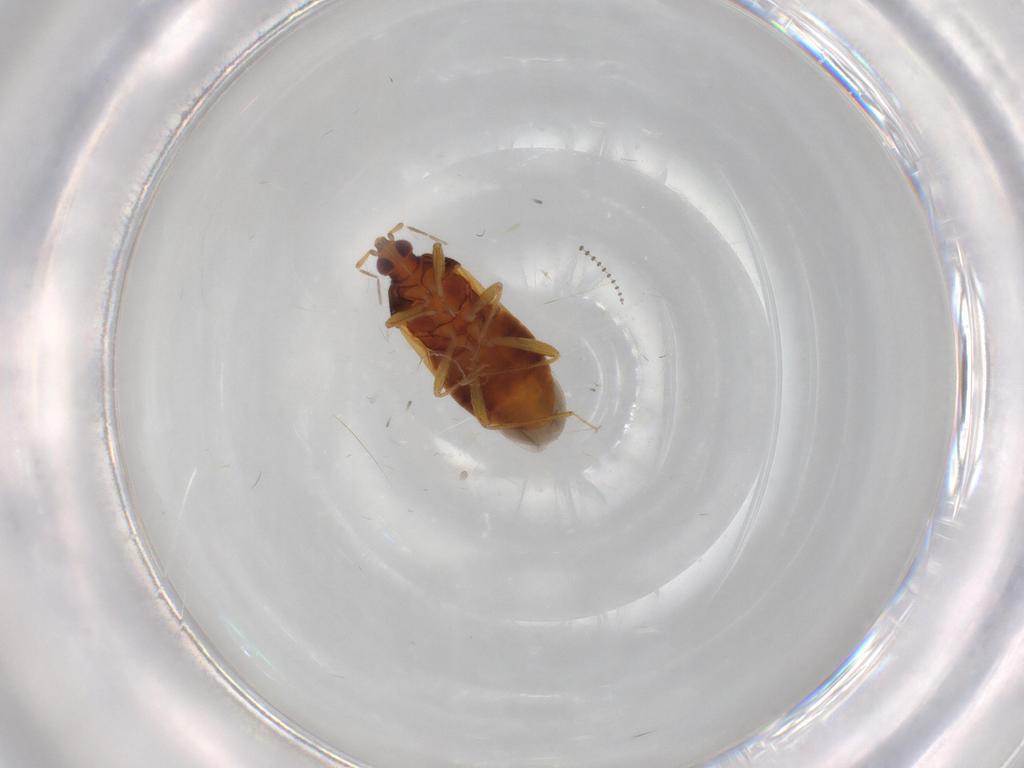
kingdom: Animalia
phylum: Arthropoda
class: Insecta
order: Hemiptera
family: Anthocoridae
